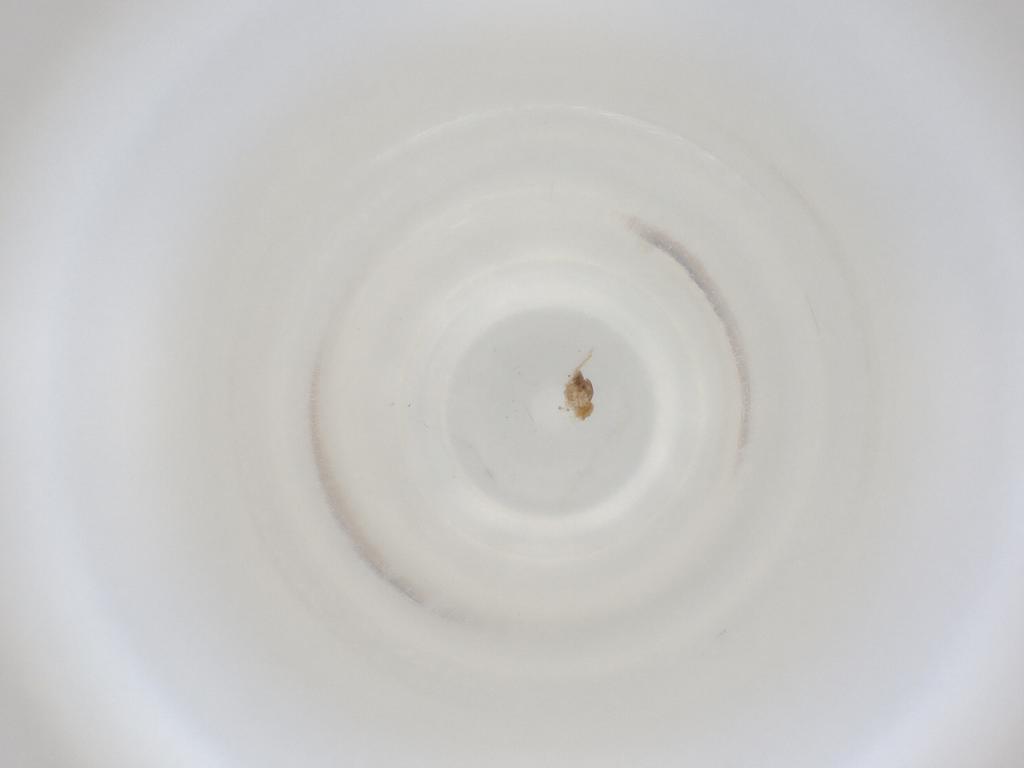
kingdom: Animalia
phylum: Arthropoda
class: Insecta
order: Diptera
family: Cecidomyiidae
